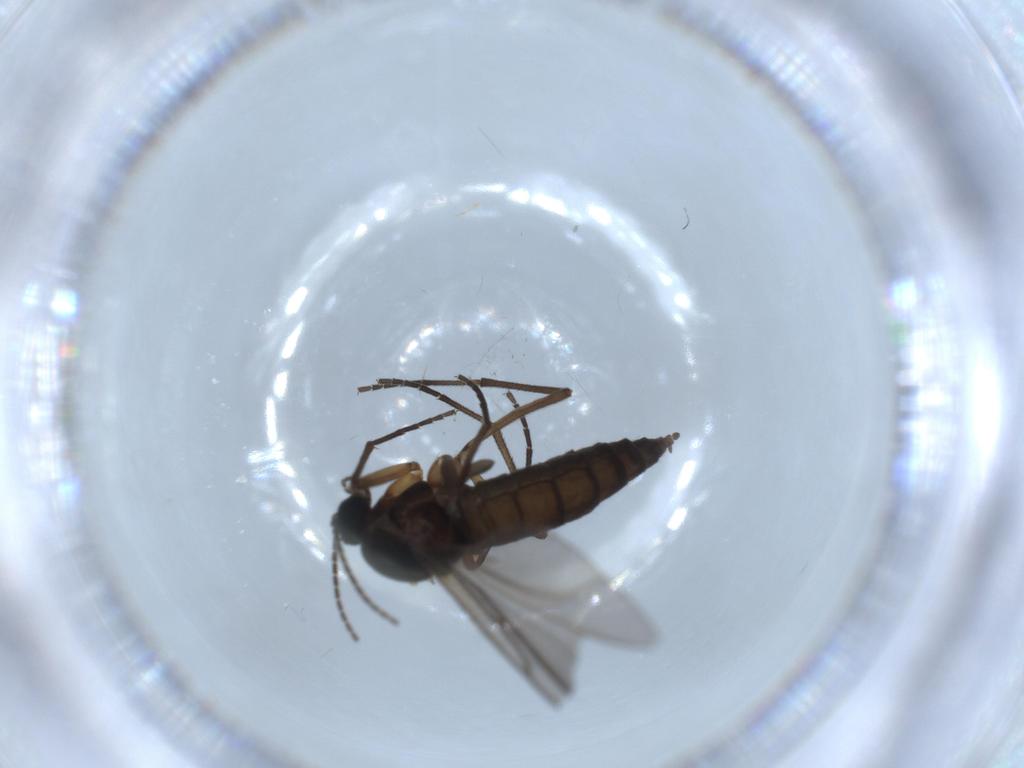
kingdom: Animalia
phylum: Arthropoda
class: Insecta
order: Diptera
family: Sciaridae
